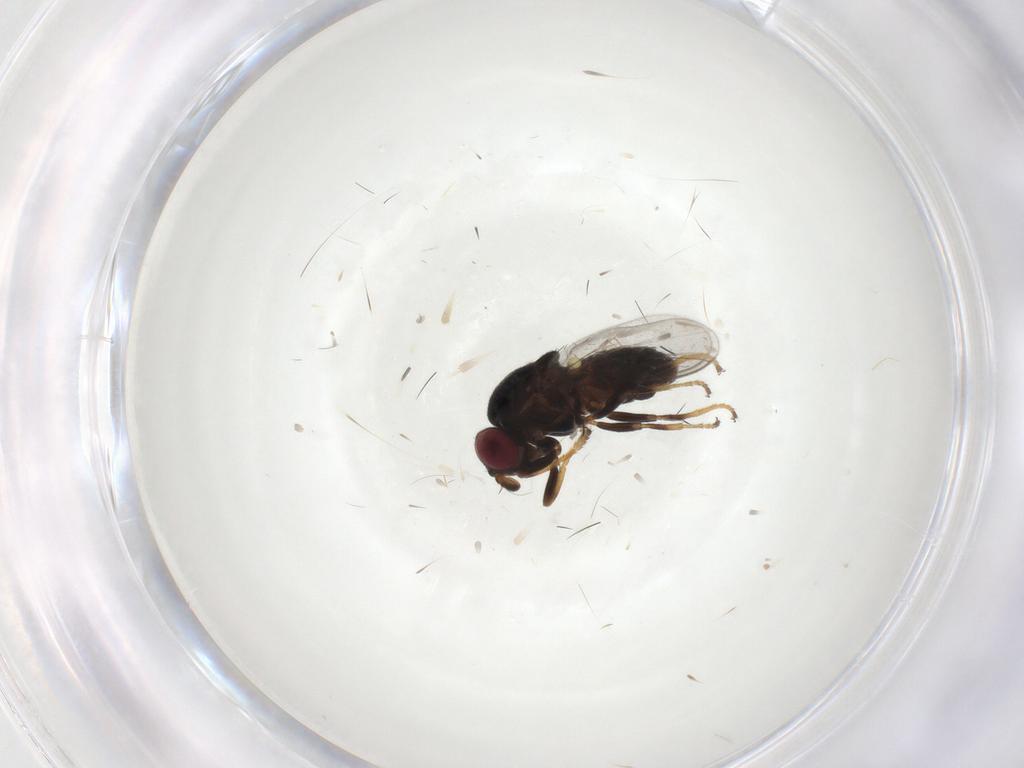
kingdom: Animalia
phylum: Arthropoda
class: Insecta
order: Diptera
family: Chloropidae
